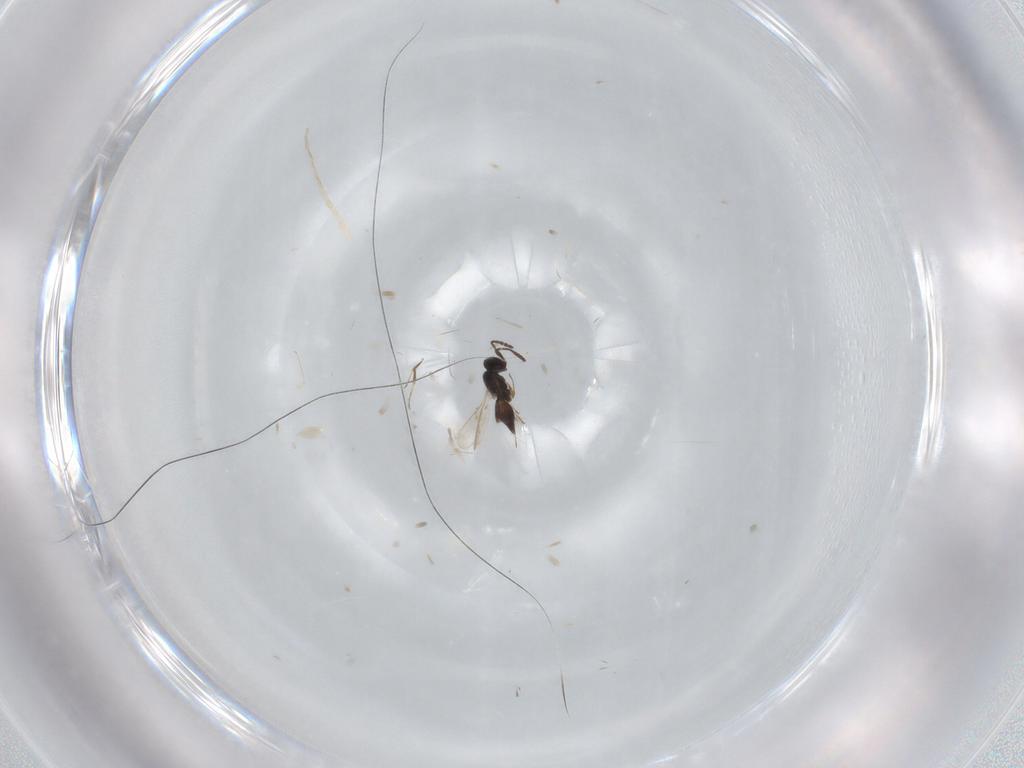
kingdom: Animalia
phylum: Arthropoda
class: Insecta
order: Hymenoptera
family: Scelionidae
